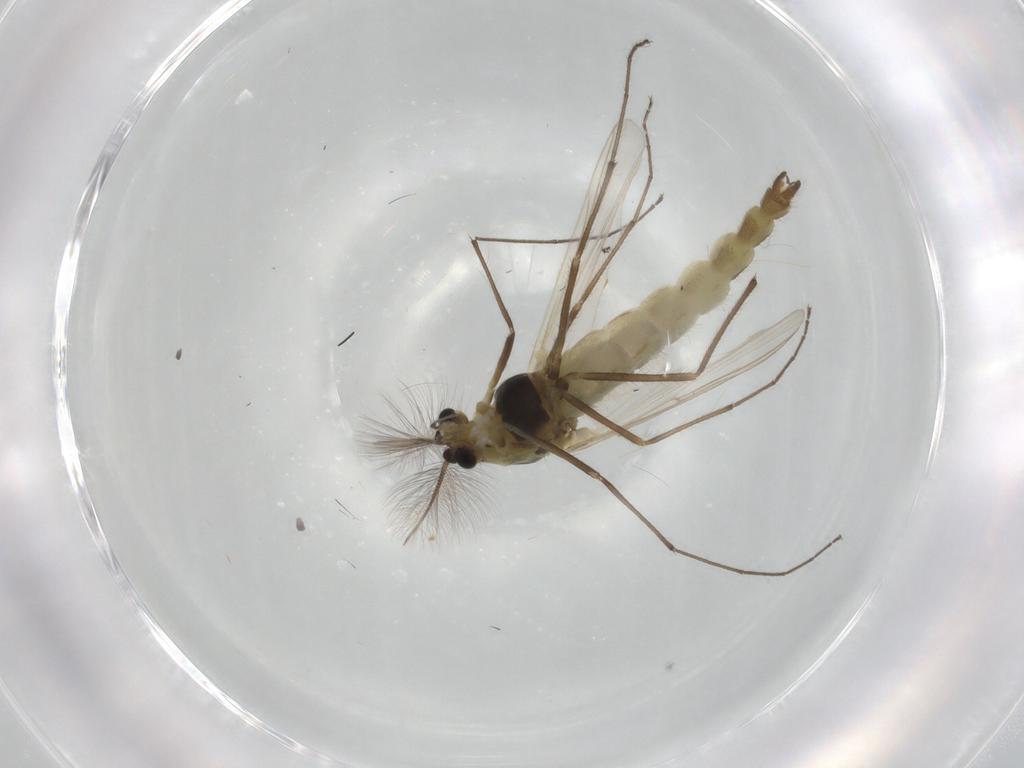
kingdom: Animalia
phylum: Arthropoda
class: Insecta
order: Diptera
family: Culicidae
